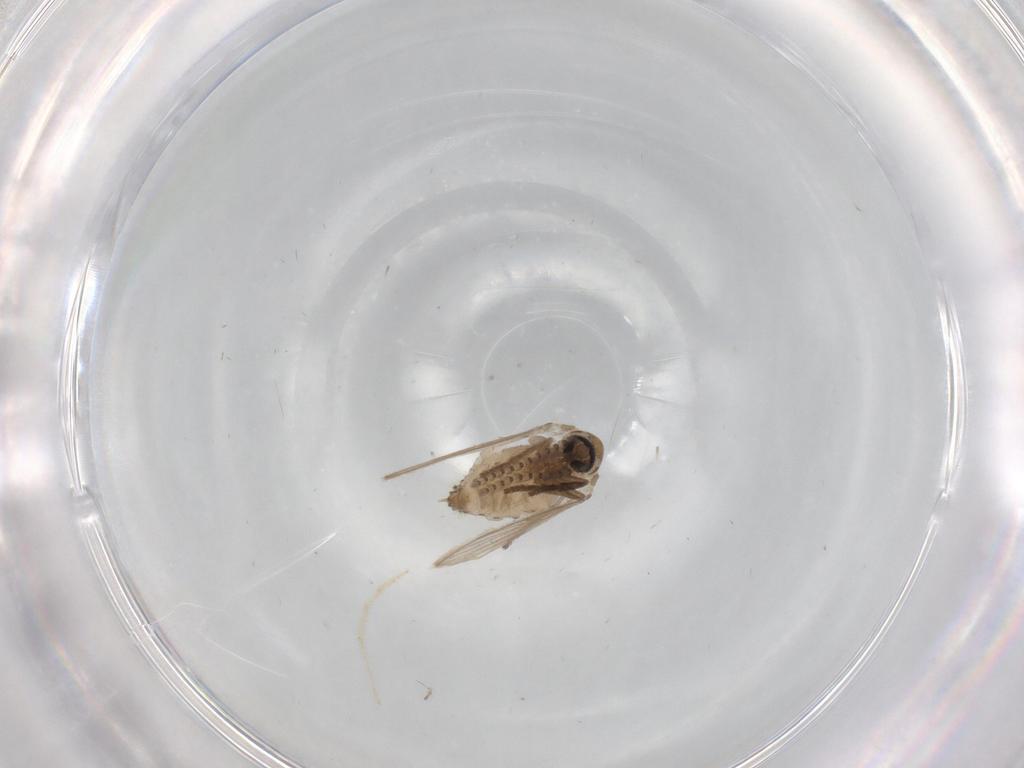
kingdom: Animalia
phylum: Arthropoda
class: Insecta
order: Diptera
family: Psychodidae
